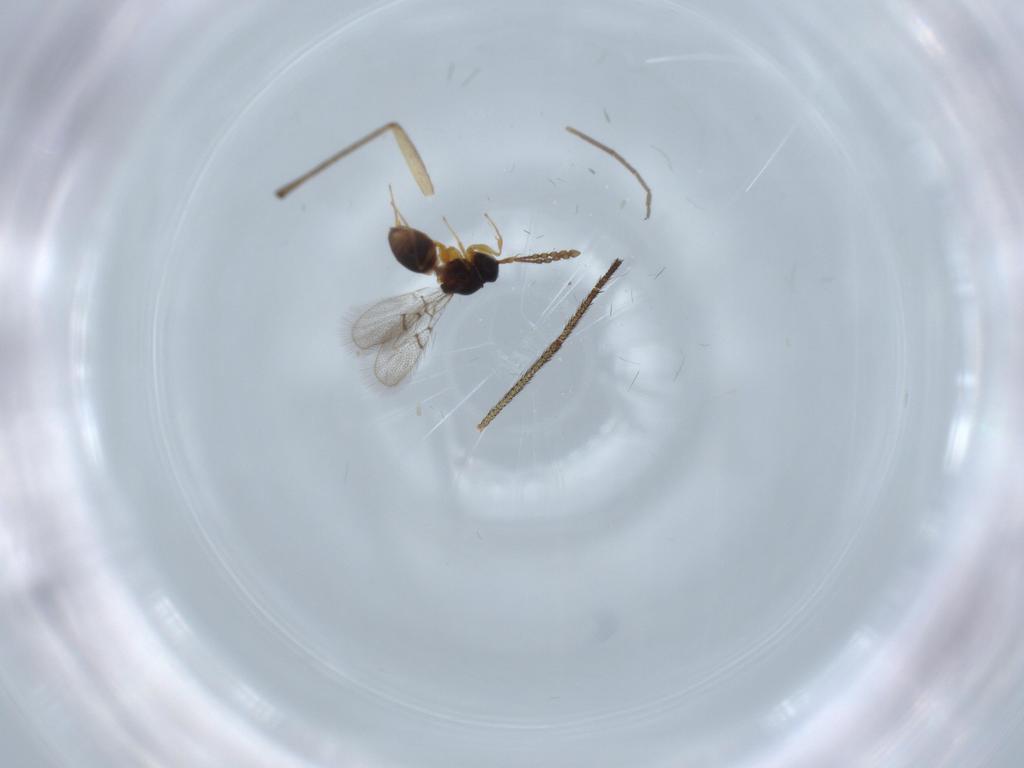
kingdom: Animalia
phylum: Arthropoda
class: Insecta
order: Hymenoptera
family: Figitidae
